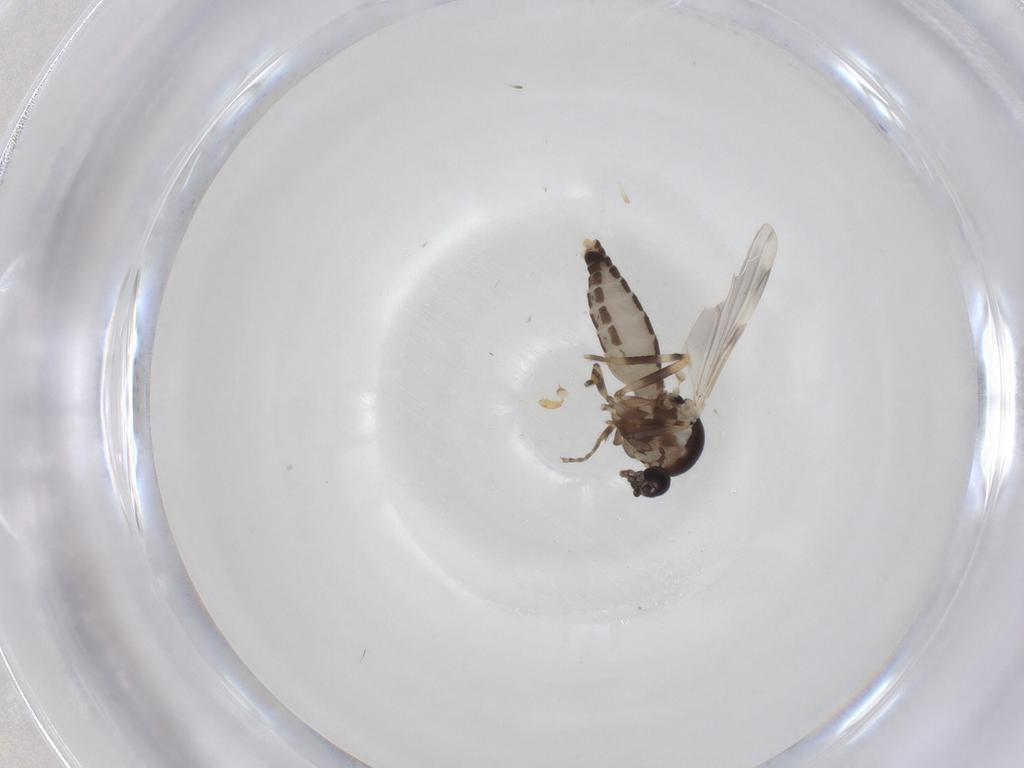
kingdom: Animalia
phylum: Arthropoda
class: Insecta
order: Diptera
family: Ceratopogonidae
